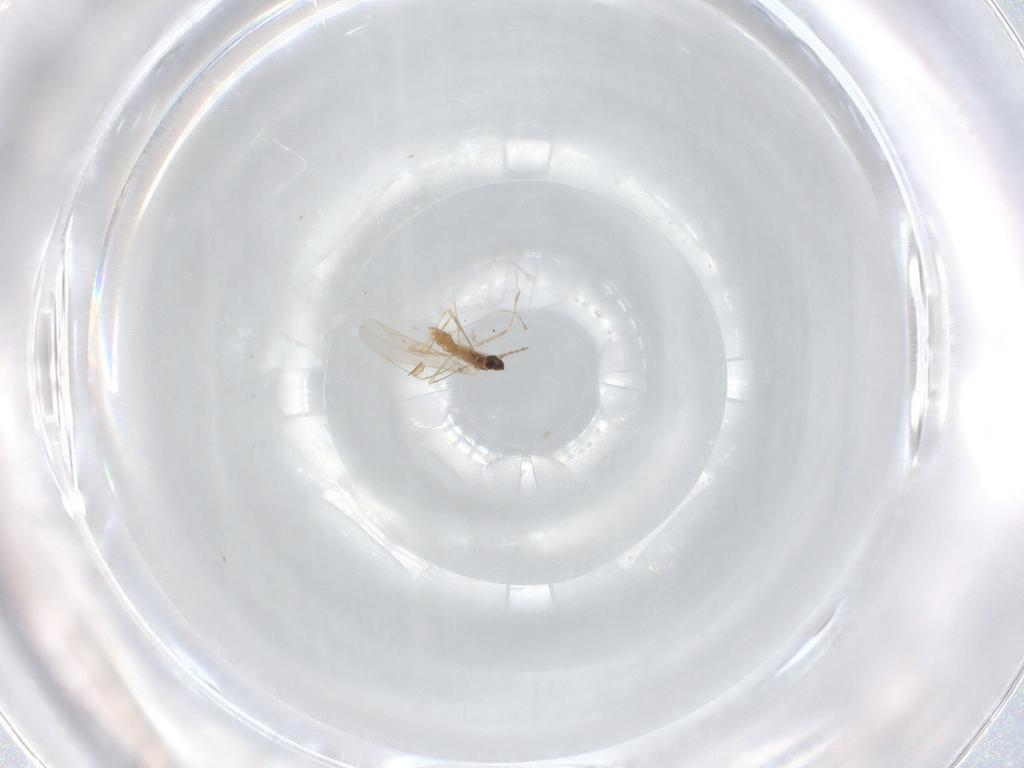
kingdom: Animalia
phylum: Arthropoda
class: Insecta
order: Diptera
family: Cecidomyiidae
